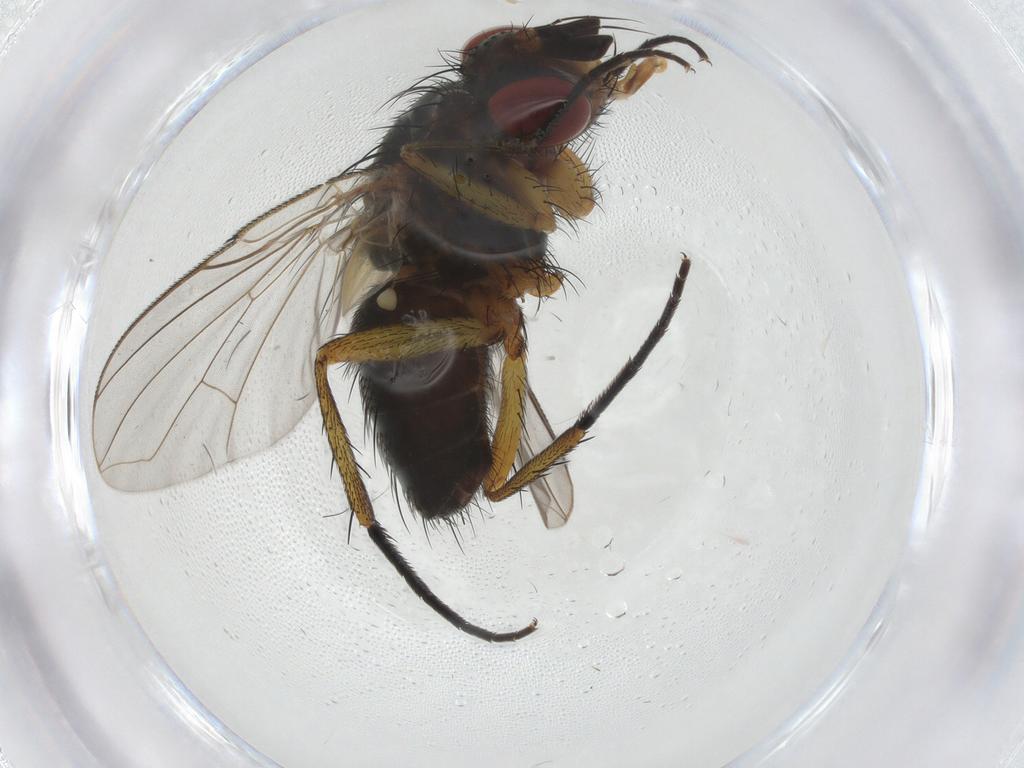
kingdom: Animalia
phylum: Arthropoda
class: Insecta
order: Diptera
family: Anthomyiidae
